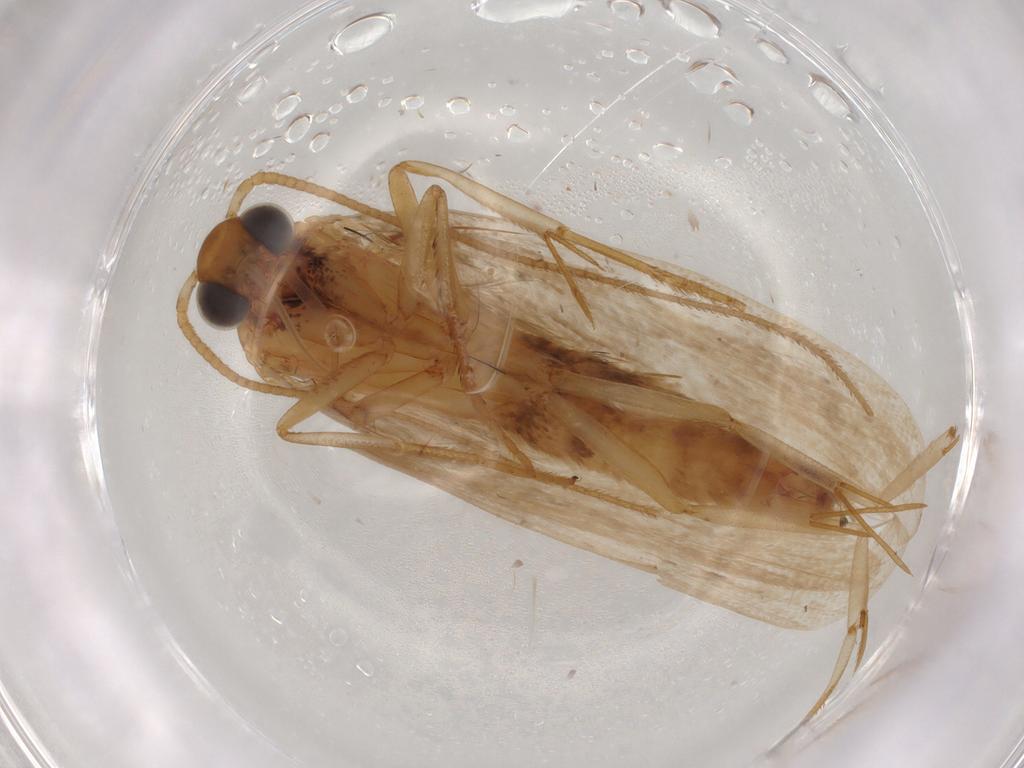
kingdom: Animalia
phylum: Arthropoda
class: Insecta
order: Lepidoptera
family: Oecophoridae
